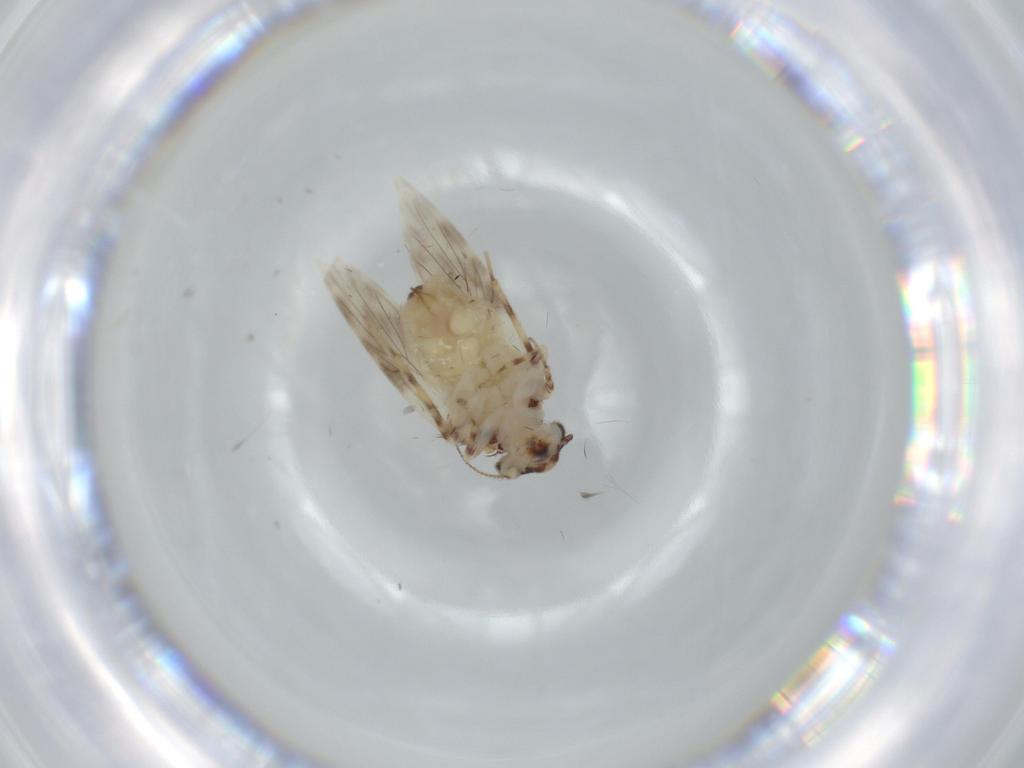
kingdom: Animalia
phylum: Arthropoda
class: Insecta
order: Psocodea
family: Lepidopsocidae
